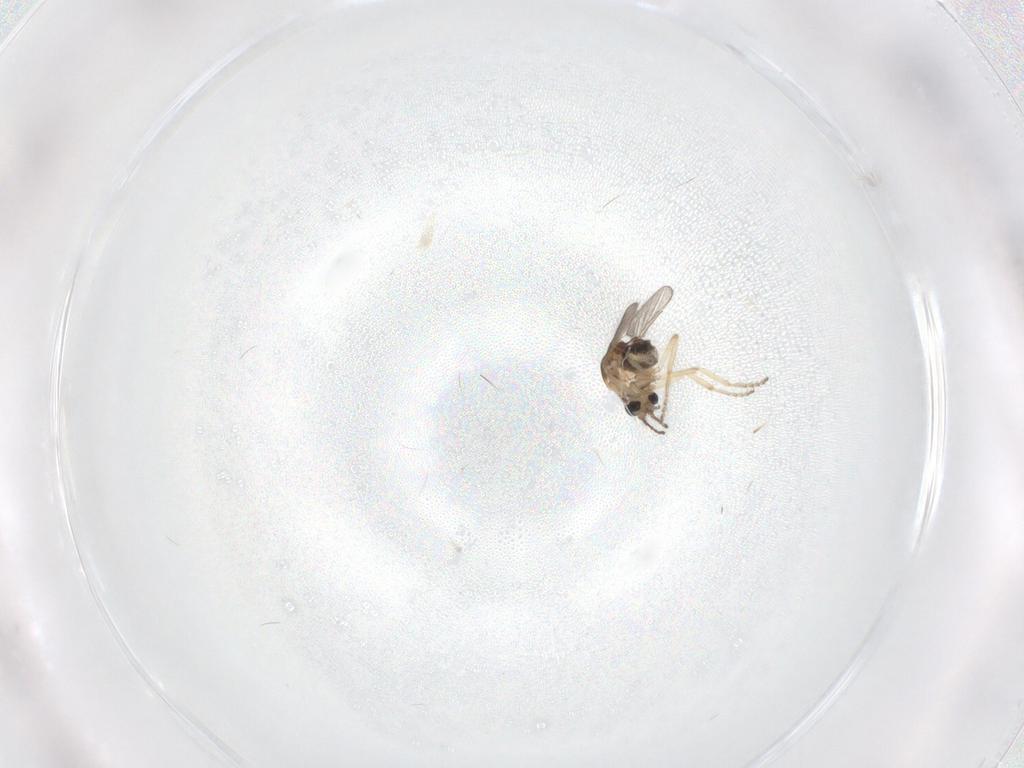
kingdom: Animalia
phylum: Arthropoda
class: Insecta
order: Diptera
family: Ceratopogonidae
